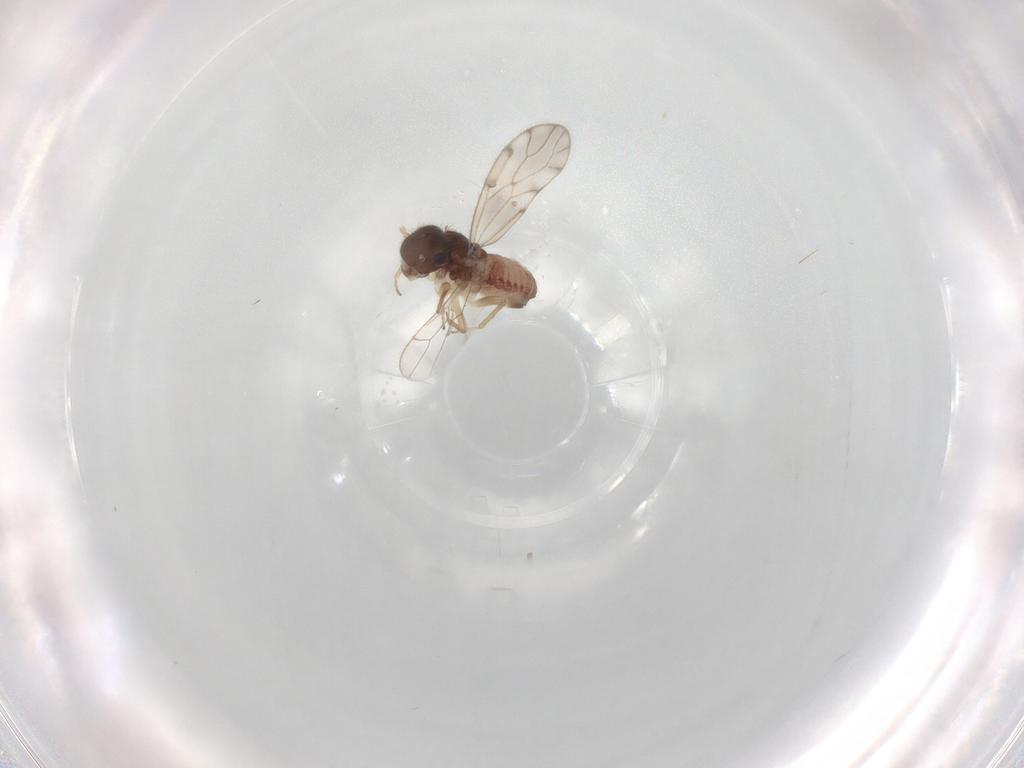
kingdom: Animalia
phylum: Arthropoda
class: Insecta
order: Psocodea
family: Peripsocidae
